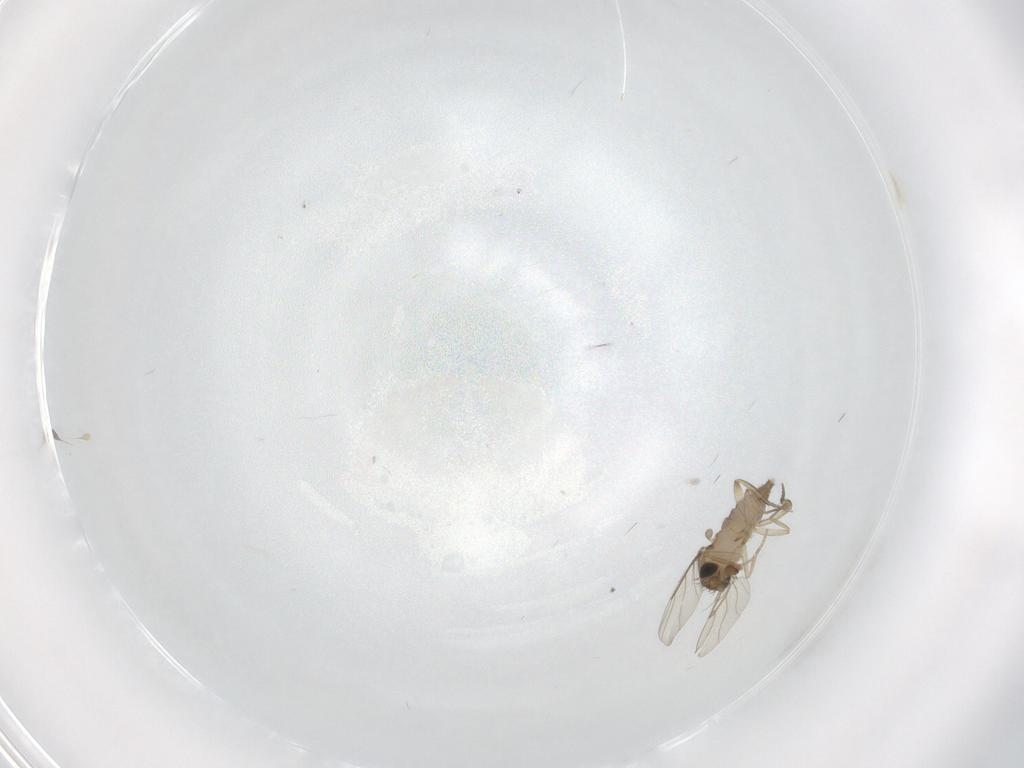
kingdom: Animalia
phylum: Arthropoda
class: Insecta
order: Diptera
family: Phoridae
